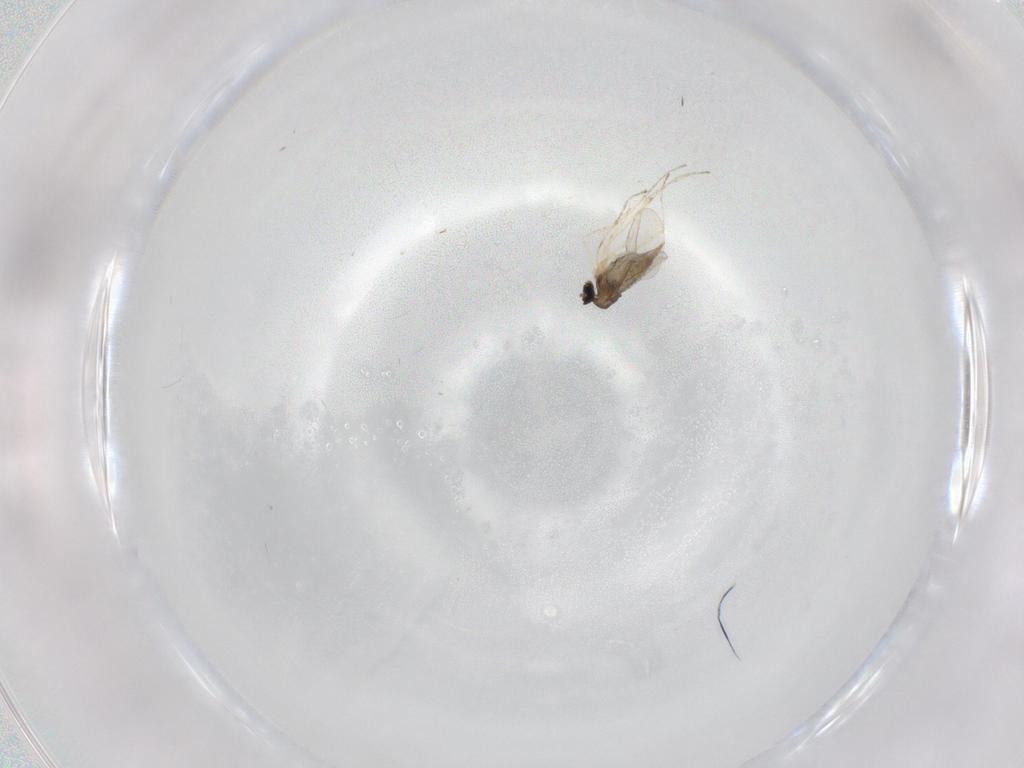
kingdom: Animalia
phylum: Arthropoda
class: Insecta
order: Diptera
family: Cecidomyiidae
